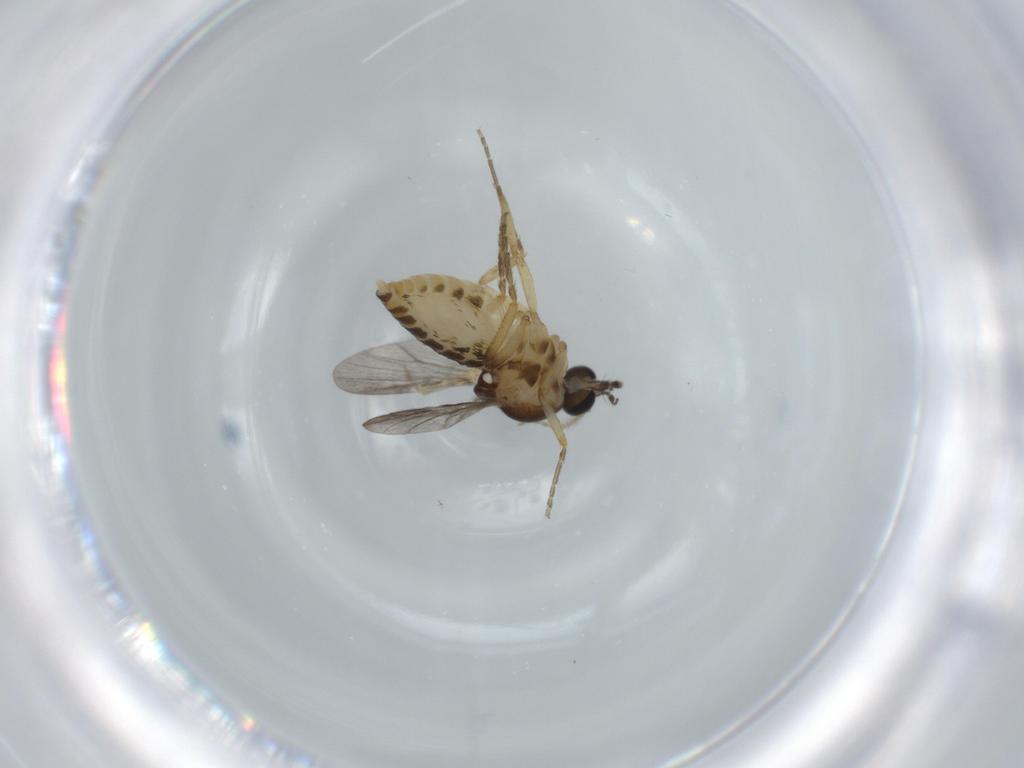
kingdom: Animalia
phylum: Arthropoda
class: Insecta
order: Diptera
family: Ceratopogonidae
